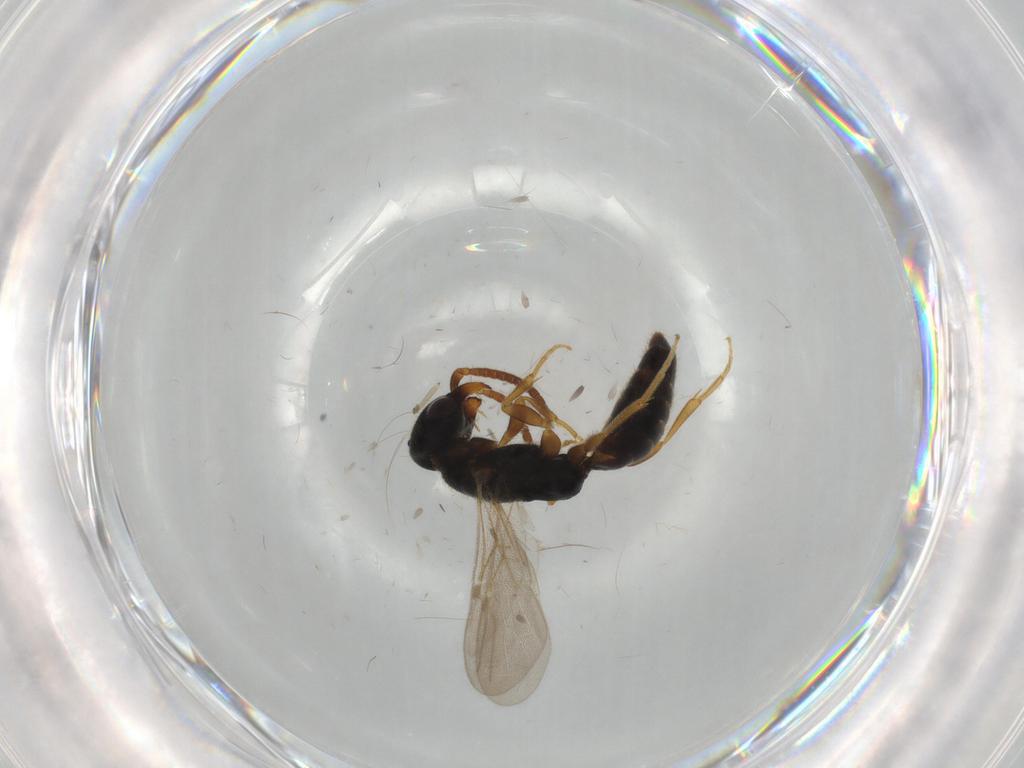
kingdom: Animalia
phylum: Arthropoda
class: Insecta
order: Hymenoptera
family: Bethylidae
